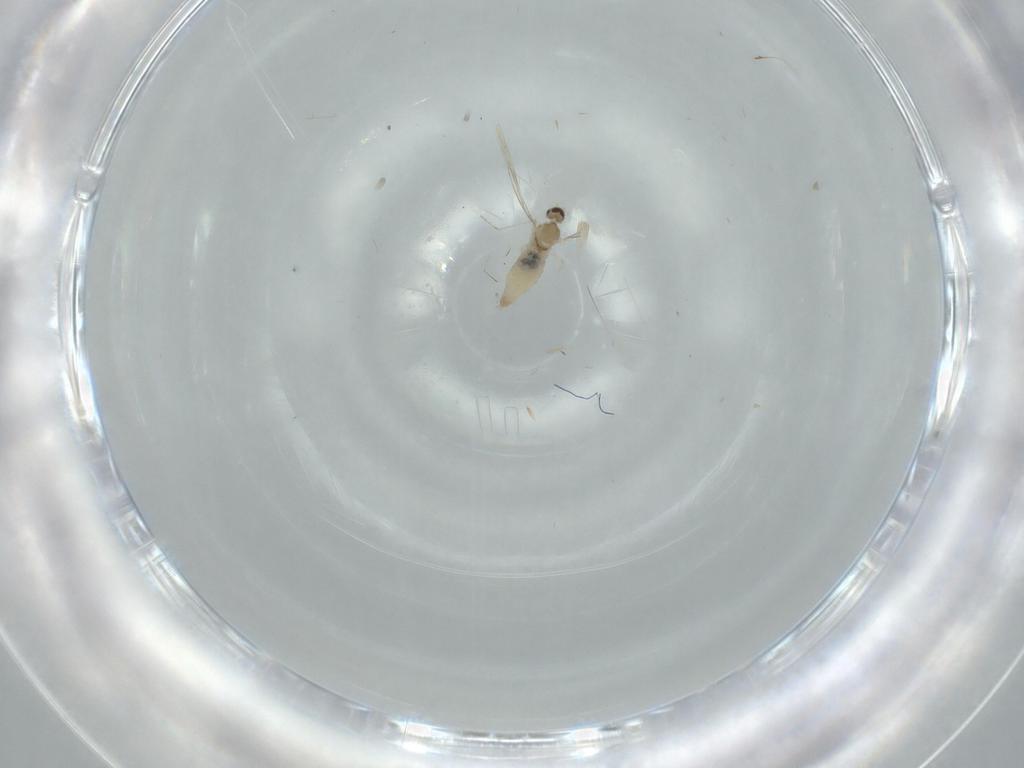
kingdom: Animalia
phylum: Arthropoda
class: Insecta
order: Diptera
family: Cecidomyiidae
